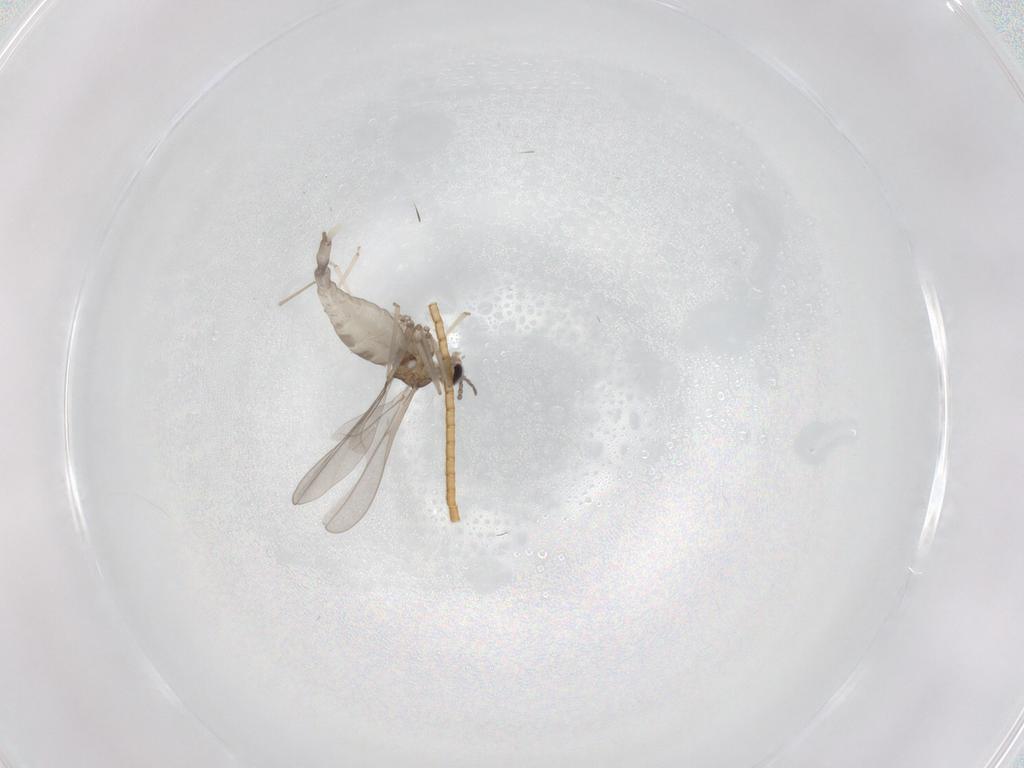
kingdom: Animalia
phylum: Arthropoda
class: Insecta
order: Diptera
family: Cecidomyiidae
